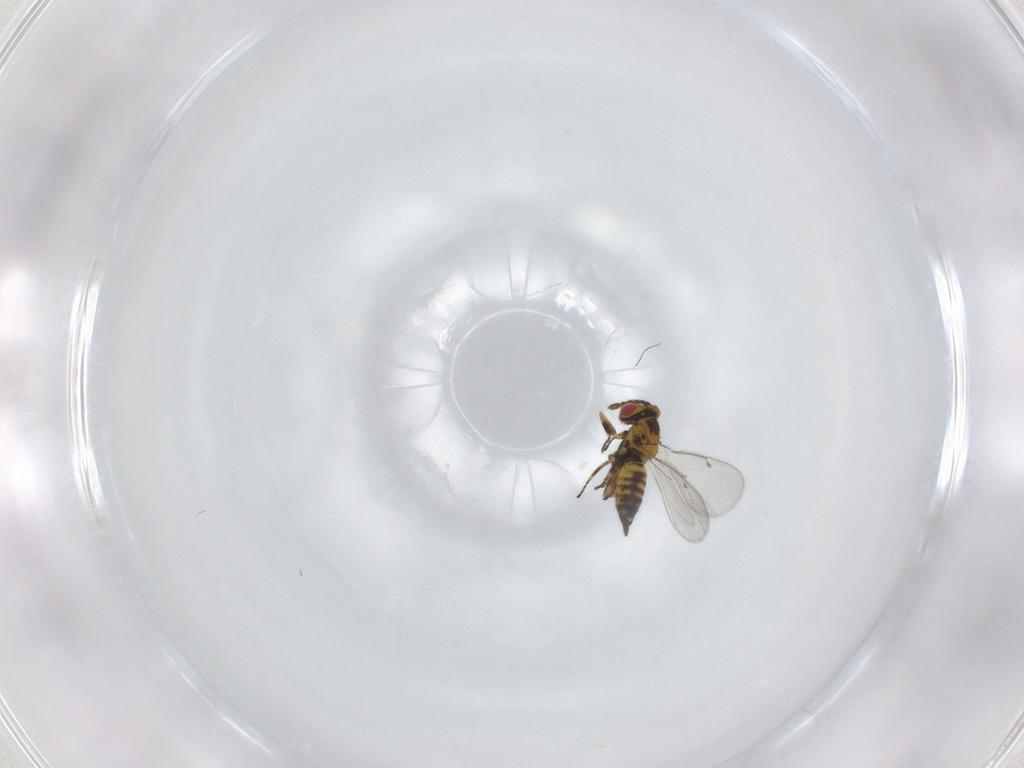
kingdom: Animalia
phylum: Arthropoda
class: Insecta
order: Hymenoptera
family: Eulophidae
